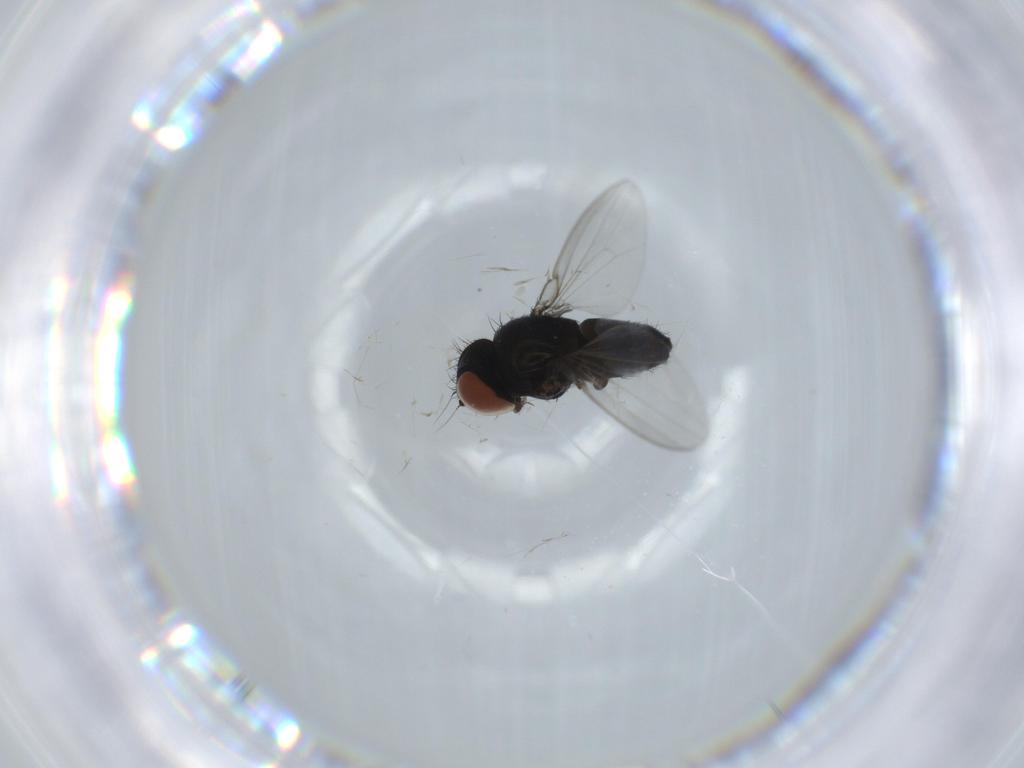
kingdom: Animalia
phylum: Arthropoda
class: Insecta
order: Diptera
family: Milichiidae
